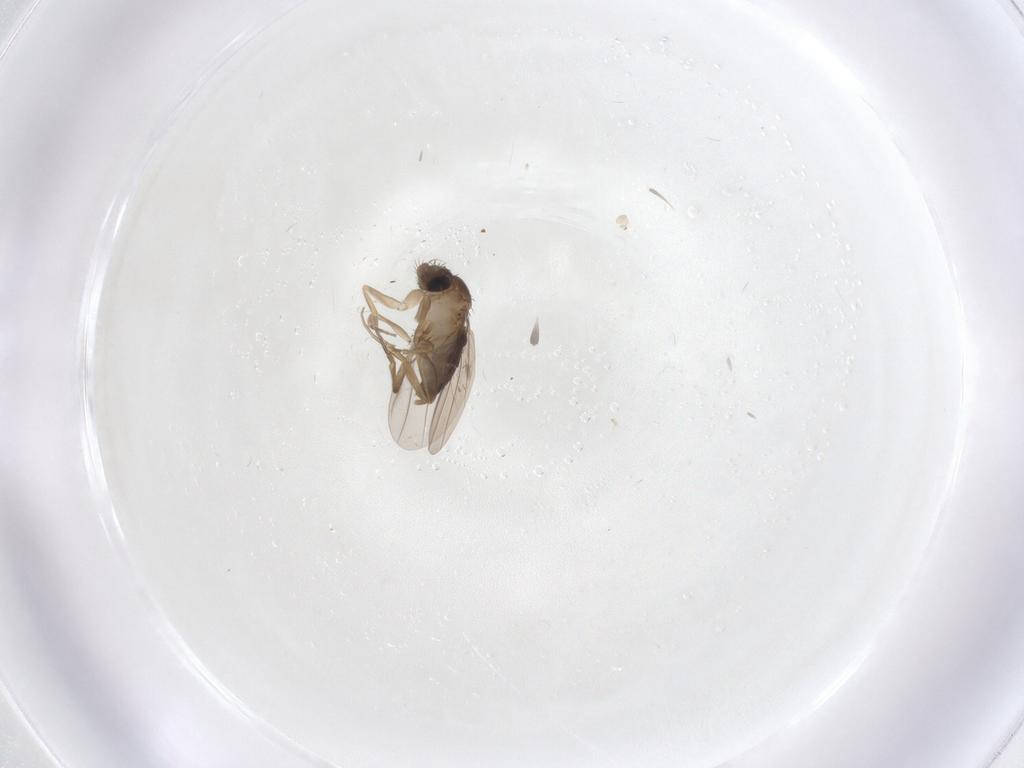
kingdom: Animalia
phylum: Arthropoda
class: Insecta
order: Diptera
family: Phoridae
